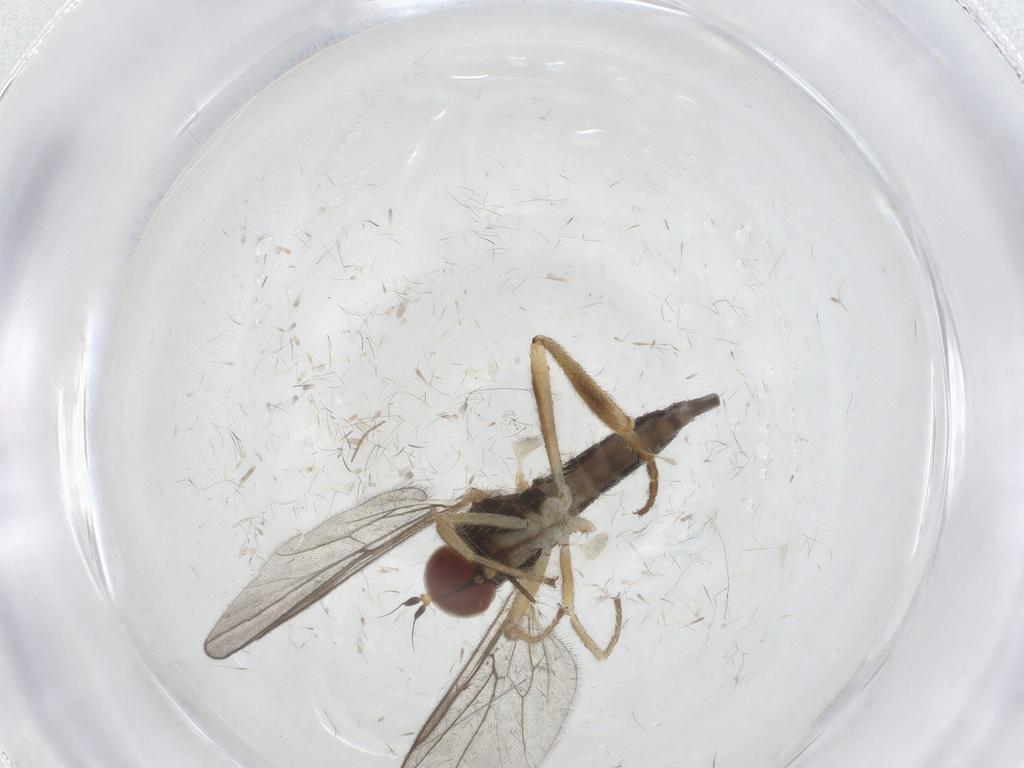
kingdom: Animalia
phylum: Arthropoda
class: Insecta
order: Diptera
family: Hybotidae
